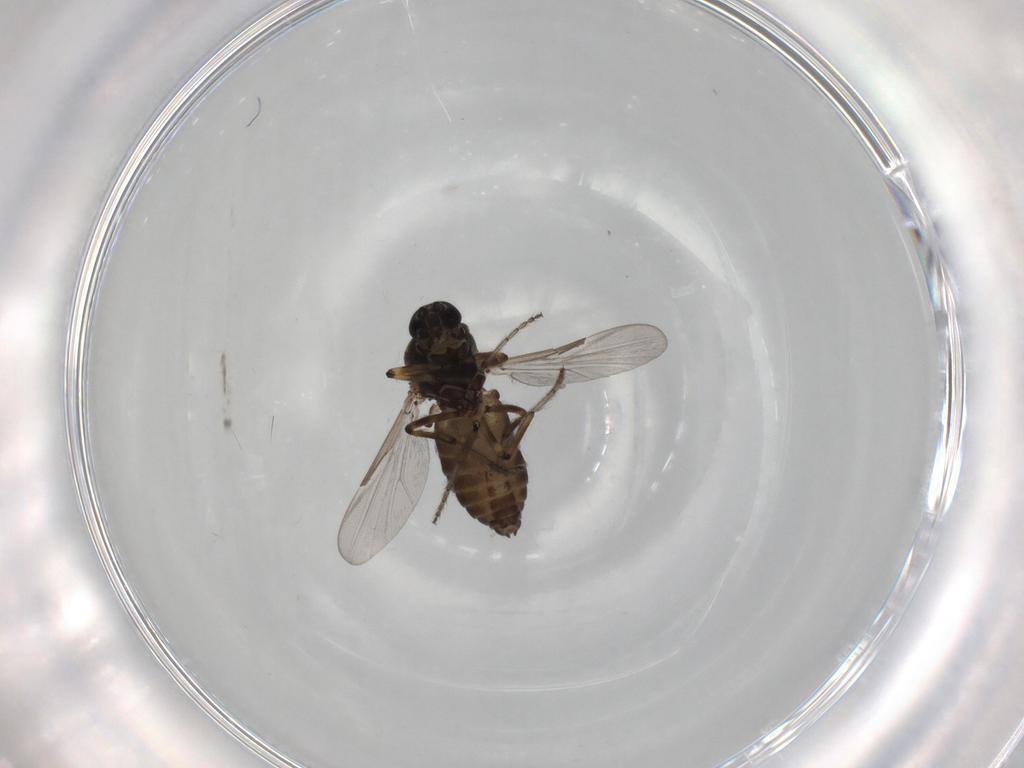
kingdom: Animalia
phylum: Arthropoda
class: Insecta
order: Diptera
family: Ceratopogonidae
